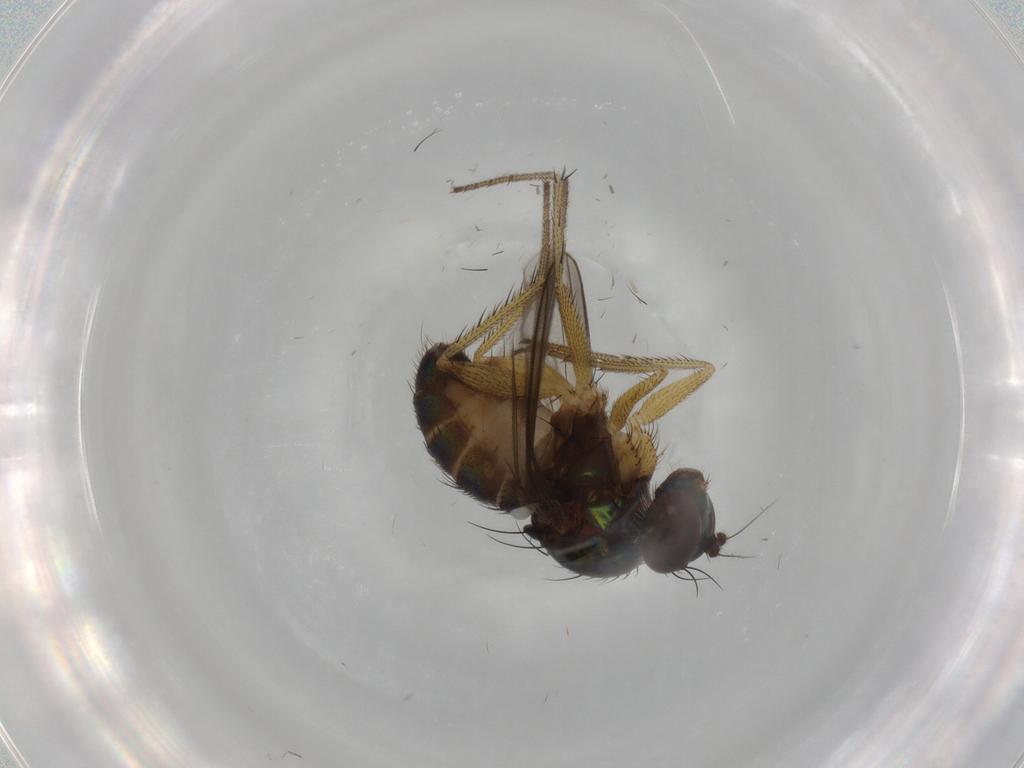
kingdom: Animalia
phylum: Arthropoda
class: Insecta
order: Diptera
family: Dolichopodidae
